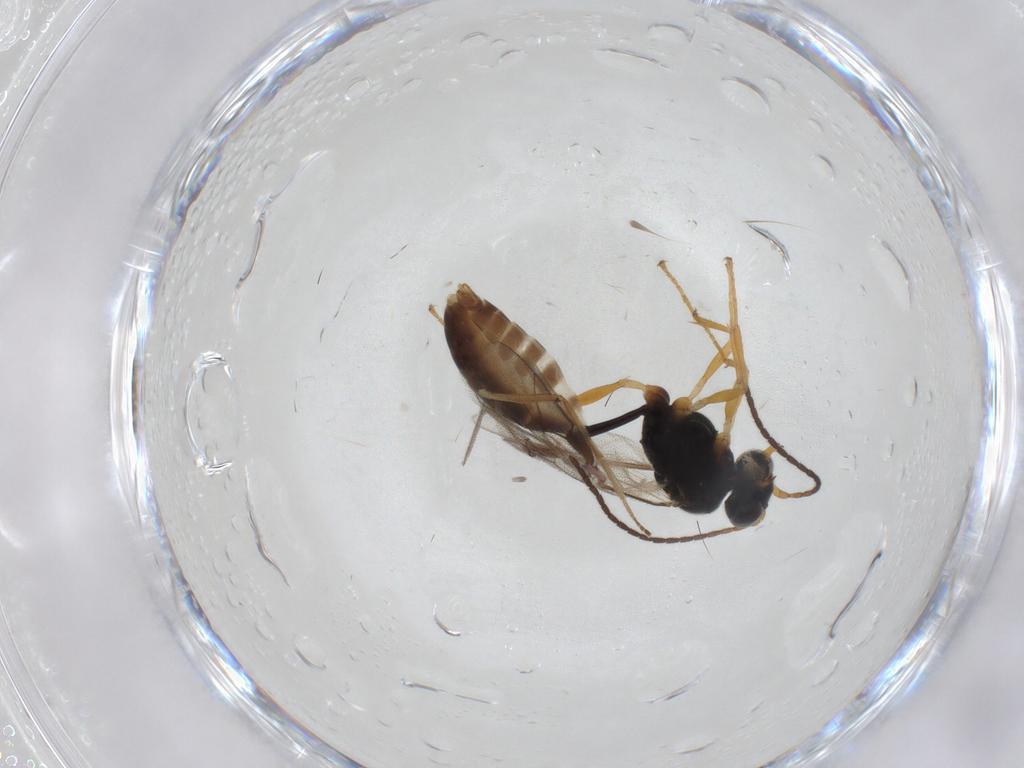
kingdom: Animalia
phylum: Arthropoda
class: Insecta
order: Hymenoptera
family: Ichneumonidae
